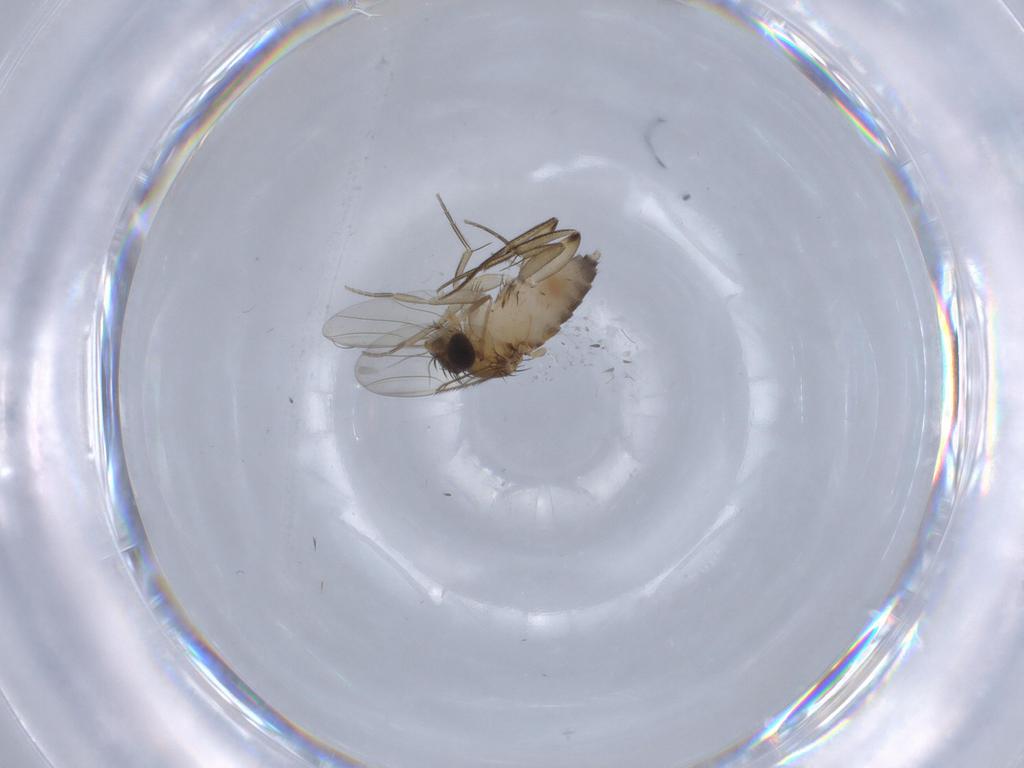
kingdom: Animalia
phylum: Arthropoda
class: Insecta
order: Diptera
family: Phoridae
